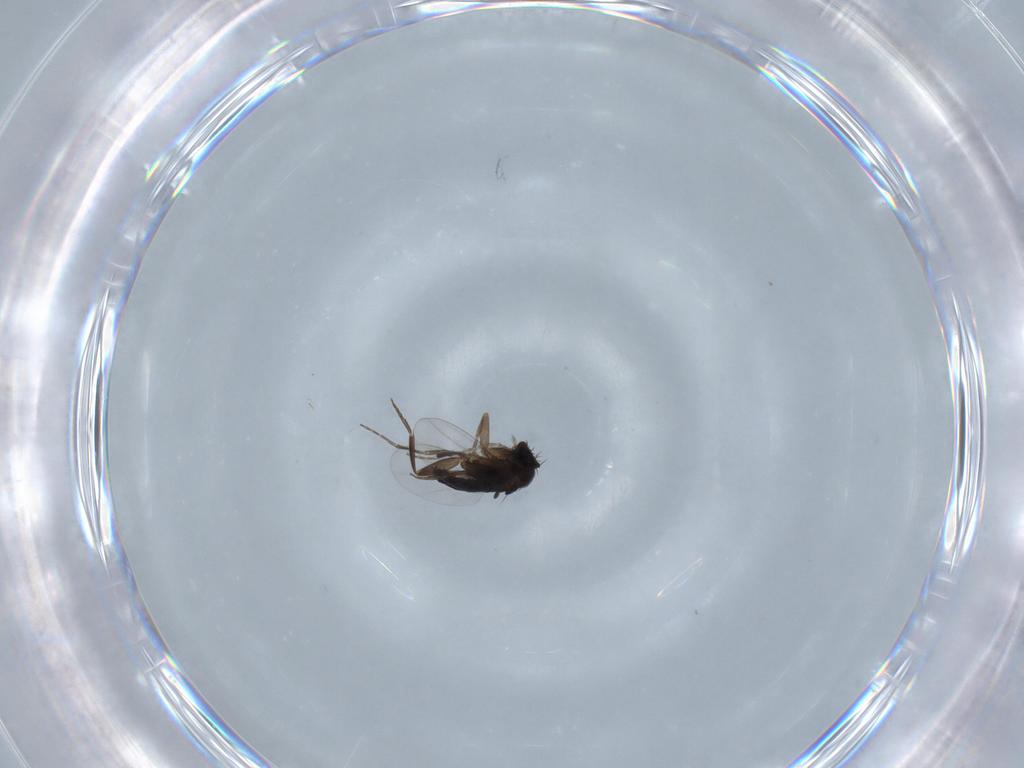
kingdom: Animalia
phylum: Arthropoda
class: Insecta
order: Diptera
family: Phoridae
